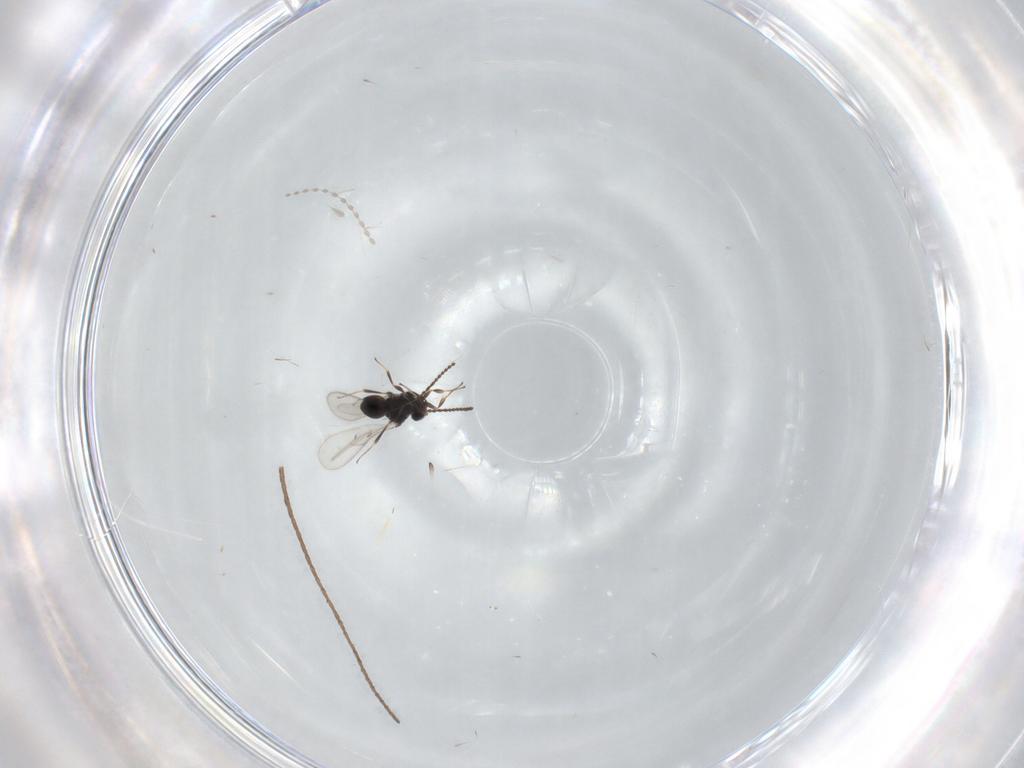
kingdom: Animalia
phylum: Arthropoda
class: Insecta
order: Hymenoptera
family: Scelionidae
